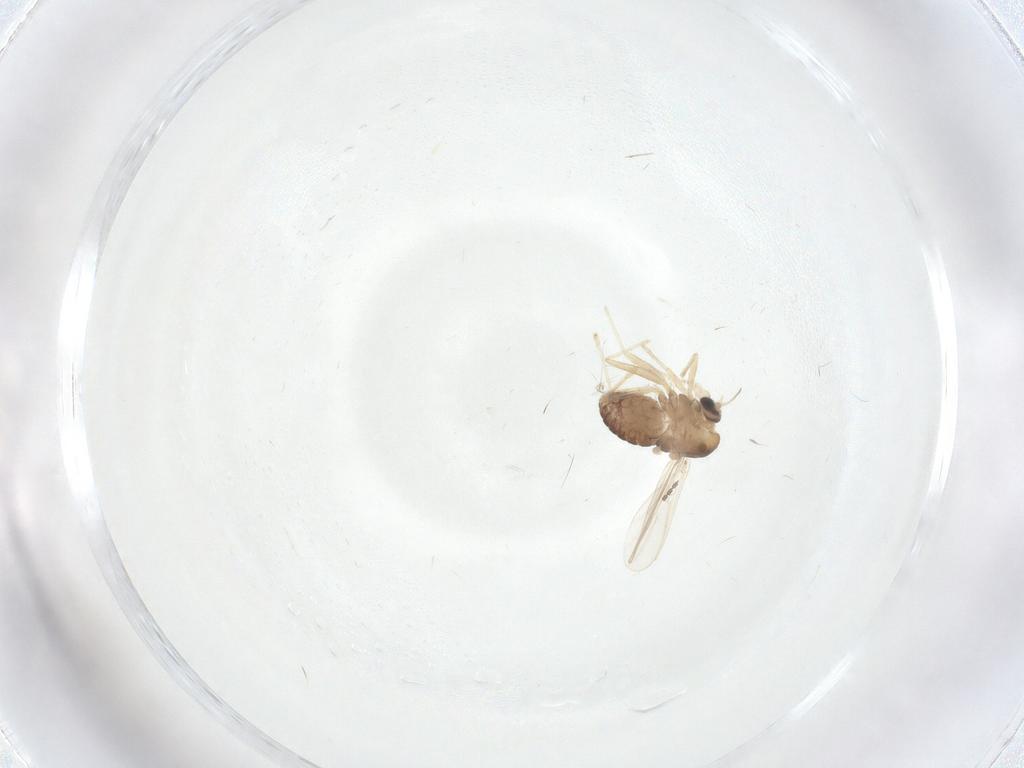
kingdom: Animalia
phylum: Arthropoda
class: Insecta
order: Diptera
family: Chironomidae
